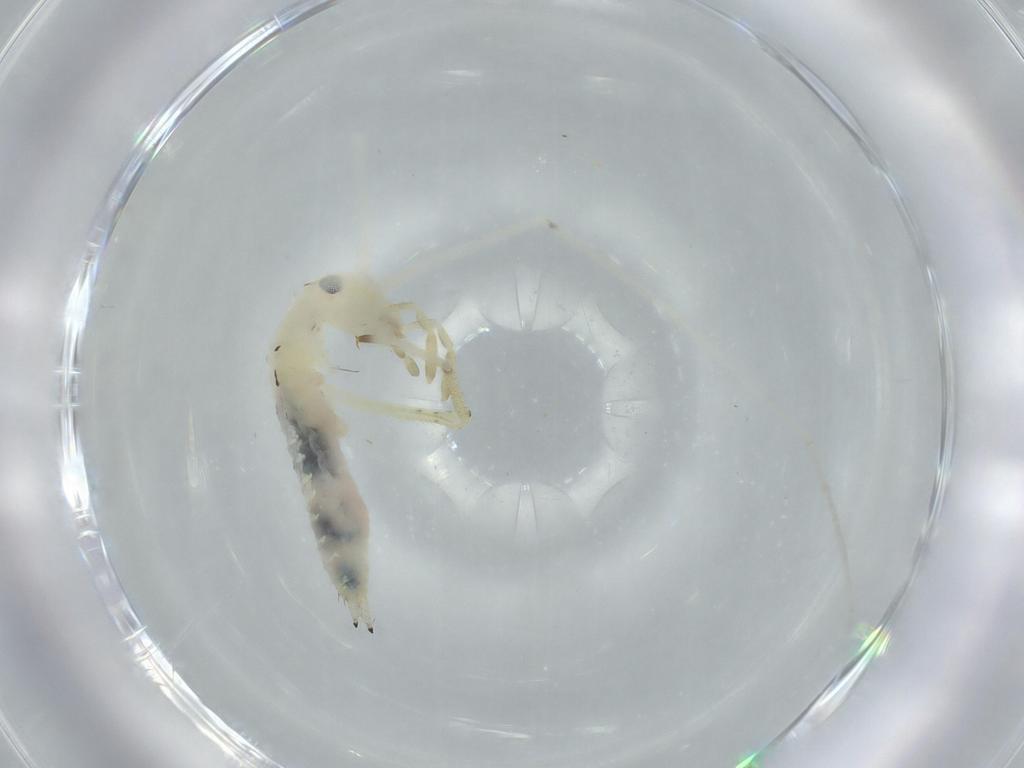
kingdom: Animalia
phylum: Arthropoda
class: Insecta
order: Orthoptera
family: Oecanthidae
